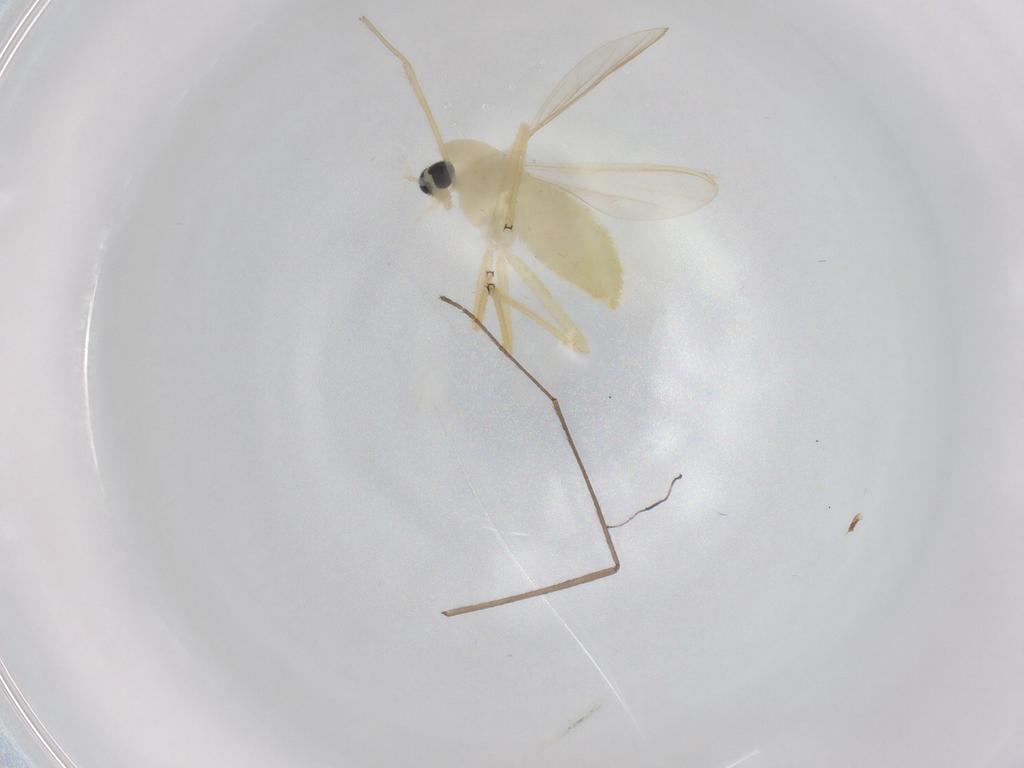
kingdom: Animalia
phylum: Arthropoda
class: Insecta
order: Diptera
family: Limoniidae
